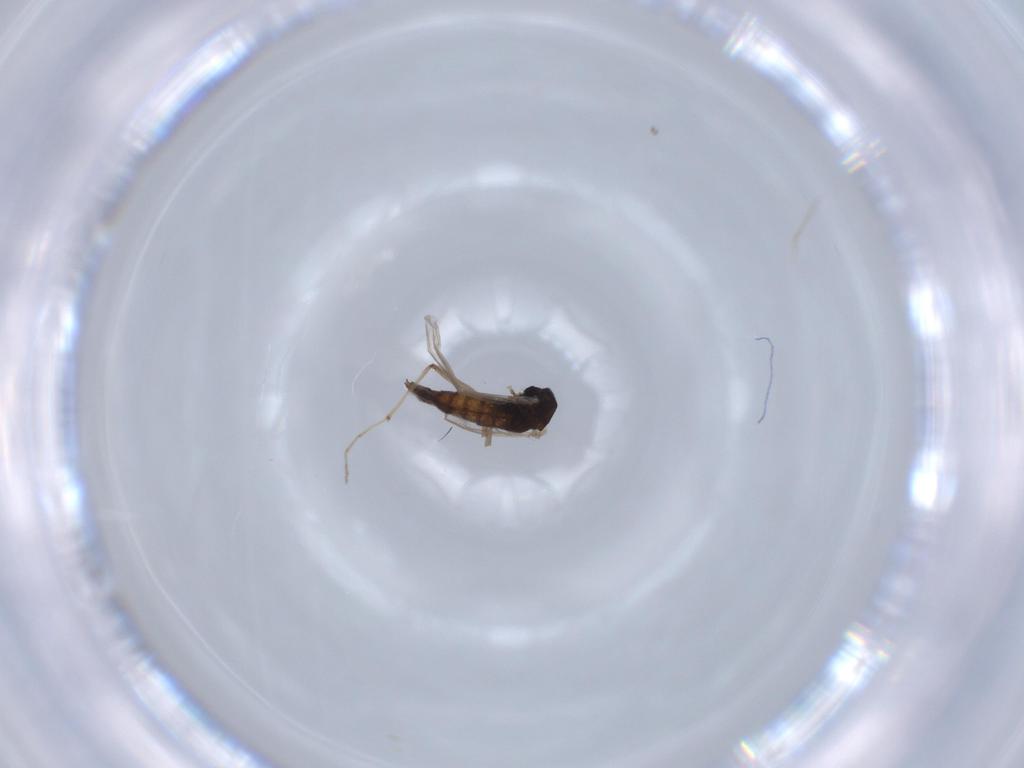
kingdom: Animalia
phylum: Arthropoda
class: Insecta
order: Diptera
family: Chironomidae
